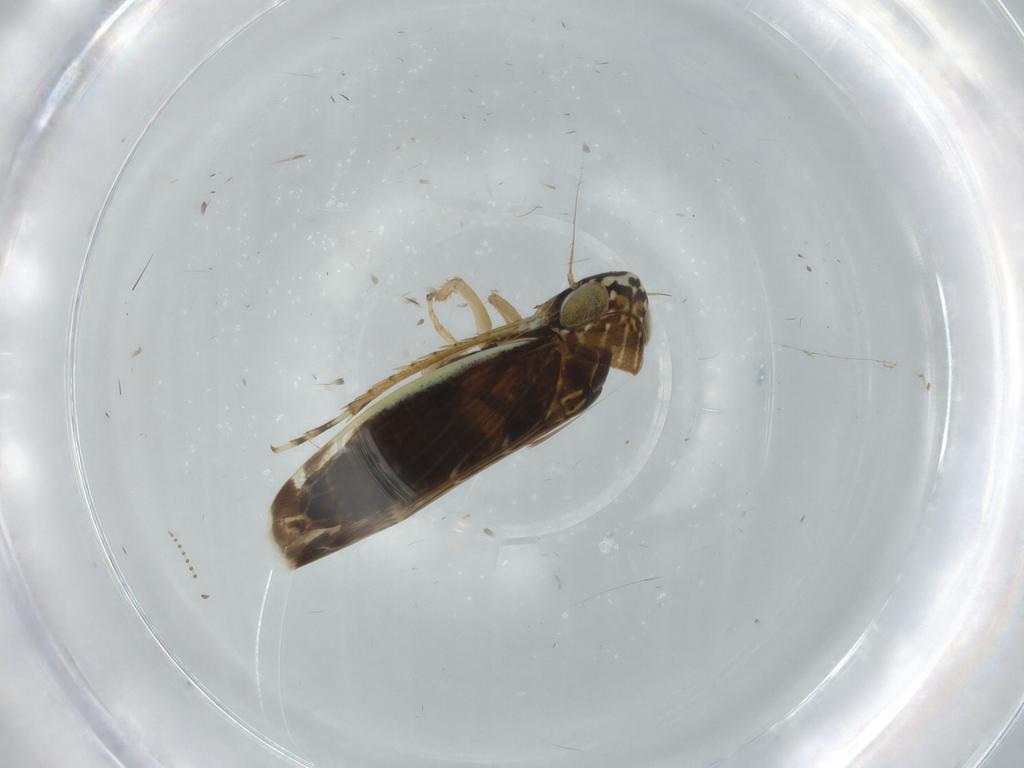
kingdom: Animalia
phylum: Arthropoda
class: Insecta
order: Hemiptera
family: Cicadellidae
